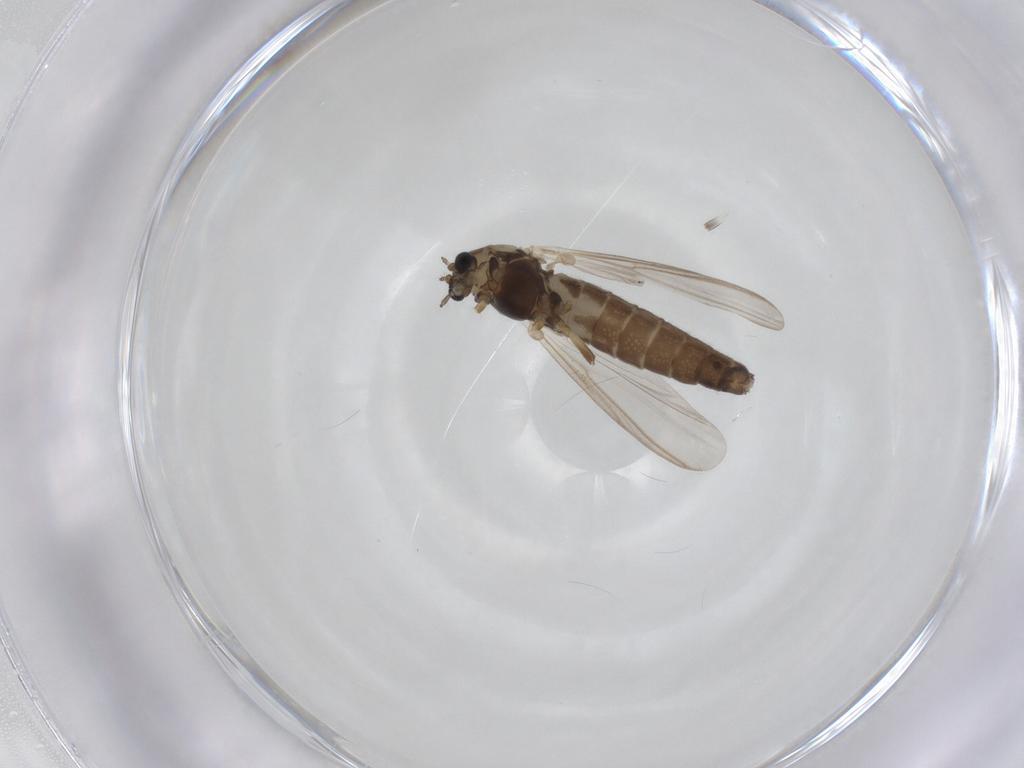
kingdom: Animalia
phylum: Arthropoda
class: Insecta
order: Diptera
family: Chironomidae
